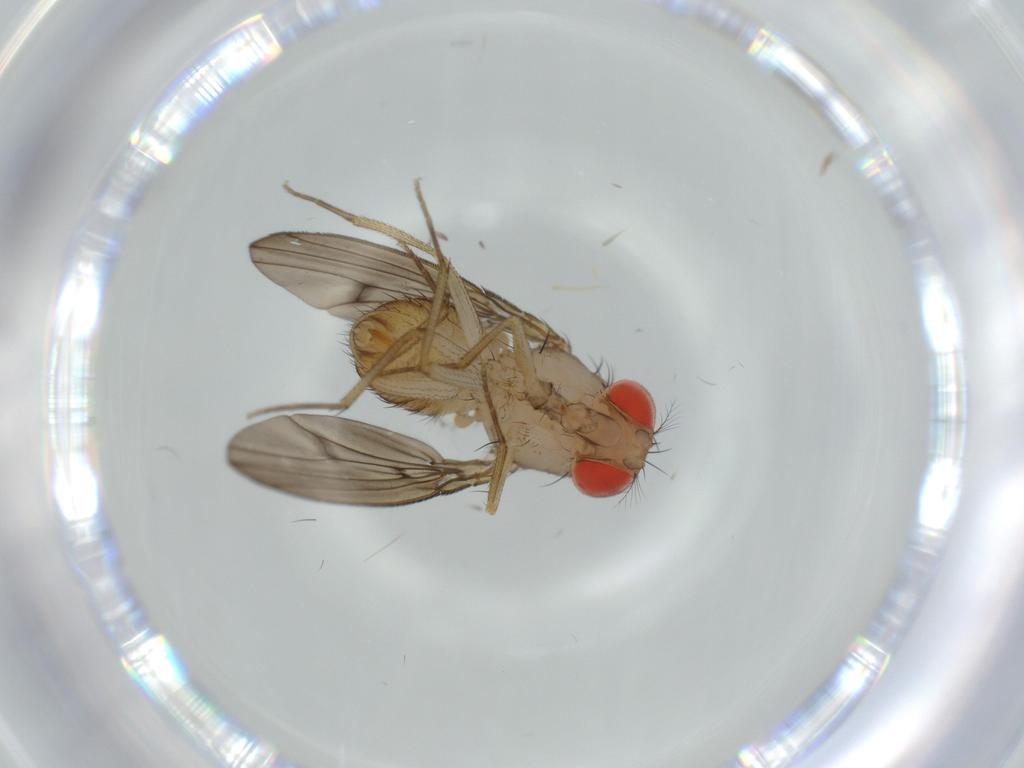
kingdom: Animalia
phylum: Arthropoda
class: Insecta
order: Diptera
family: Drosophilidae
